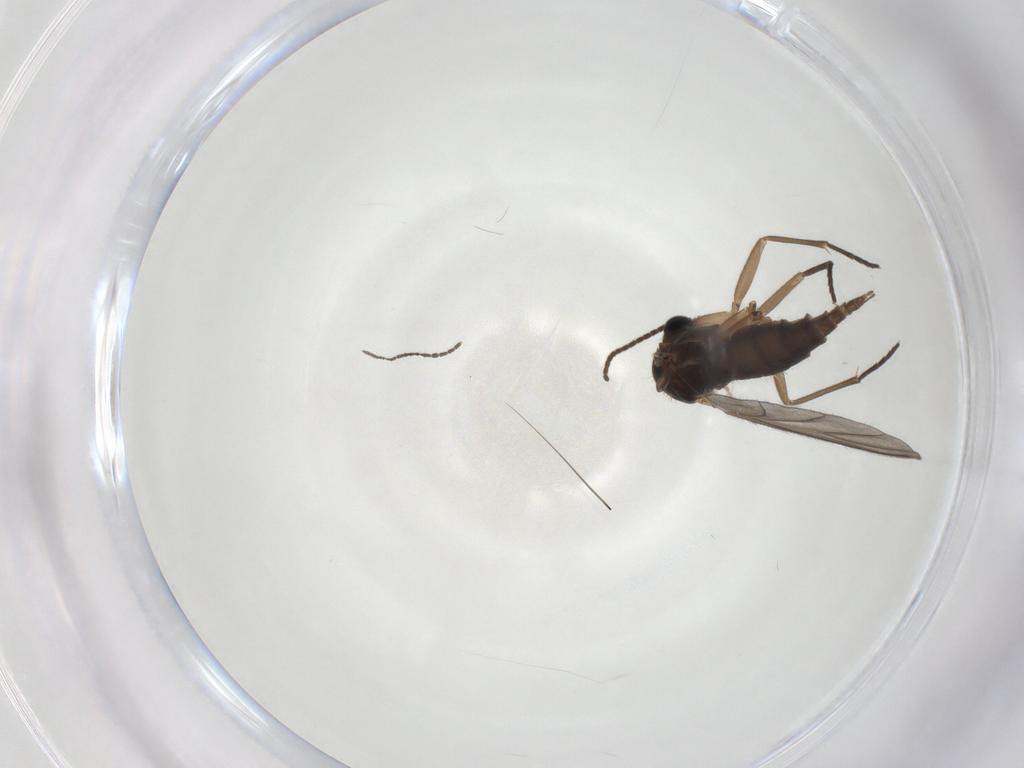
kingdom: Animalia
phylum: Arthropoda
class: Insecta
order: Diptera
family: Sciaridae
